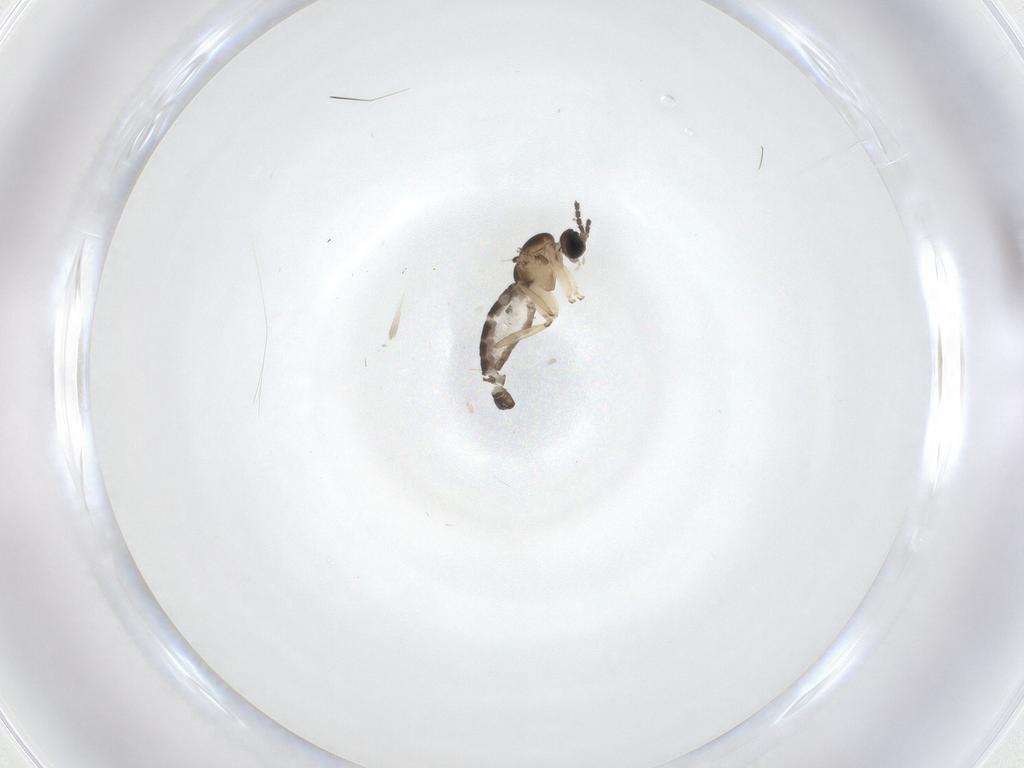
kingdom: Animalia
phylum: Arthropoda
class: Insecta
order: Diptera
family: Sciaridae
